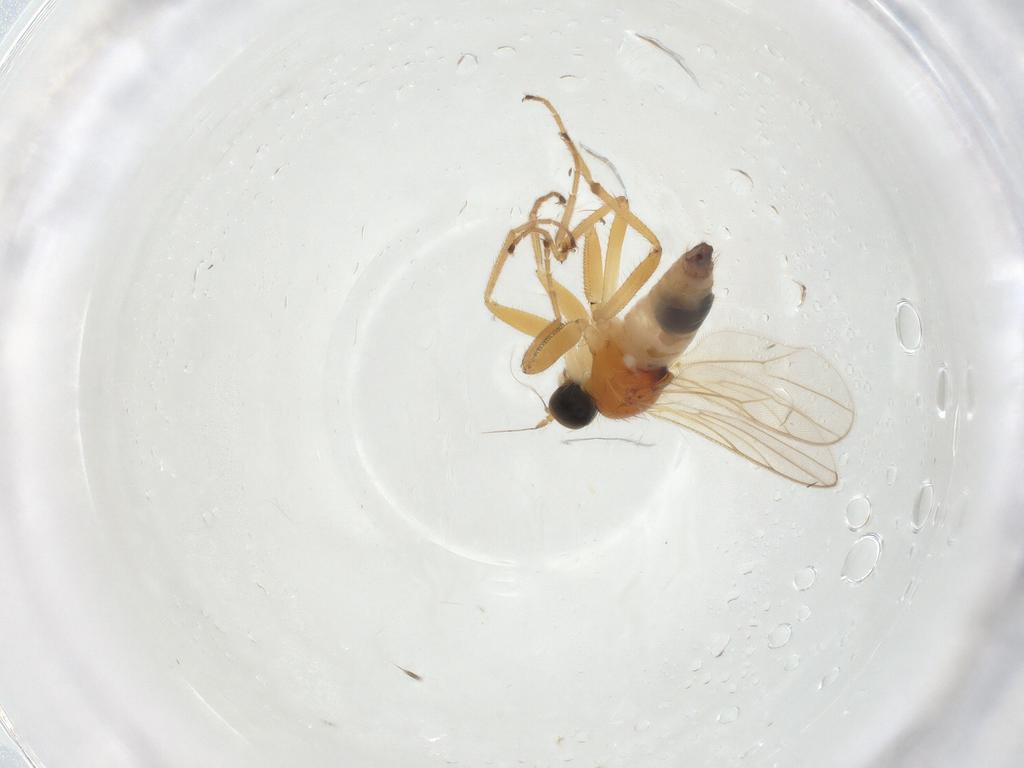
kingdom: Animalia
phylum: Arthropoda
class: Insecta
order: Diptera
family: Hybotidae
